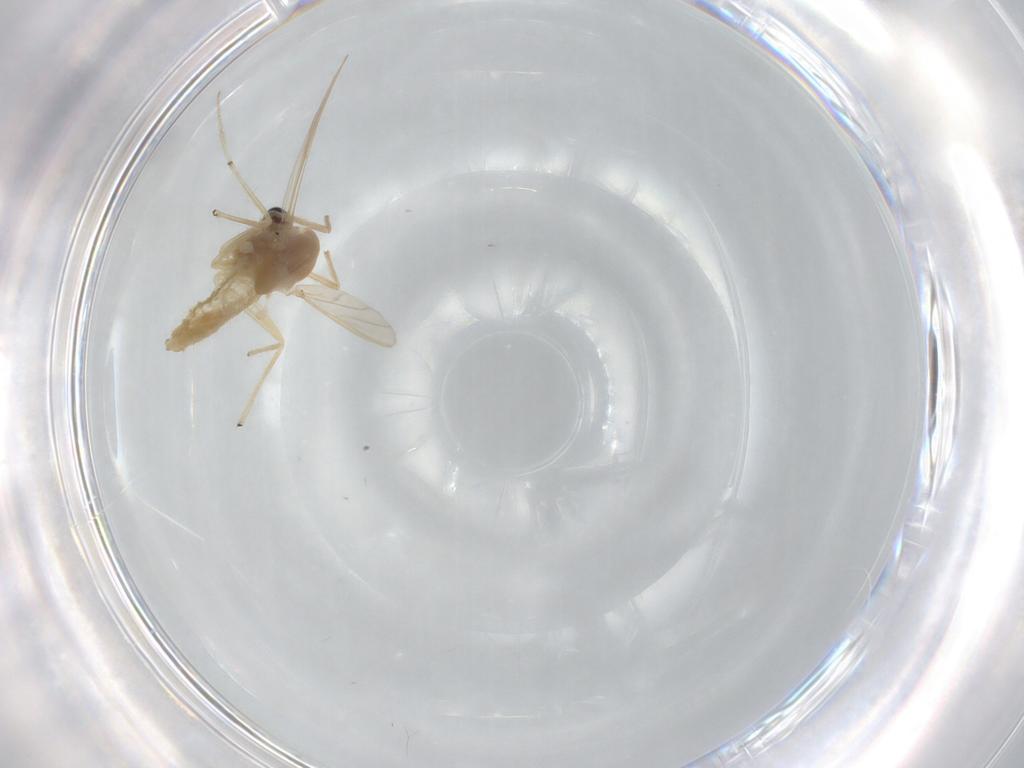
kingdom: Animalia
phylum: Arthropoda
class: Insecta
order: Diptera
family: Chironomidae
